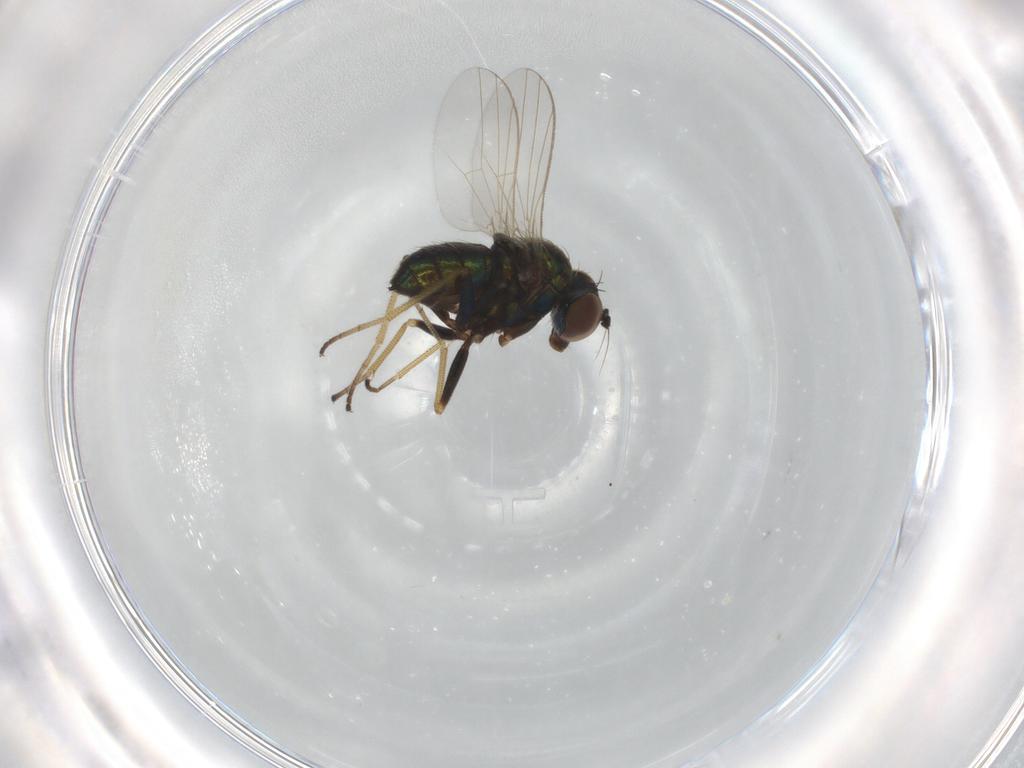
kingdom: Animalia
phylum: Arthropoda
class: Insecta
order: Diptera
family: Dolichopodidae
